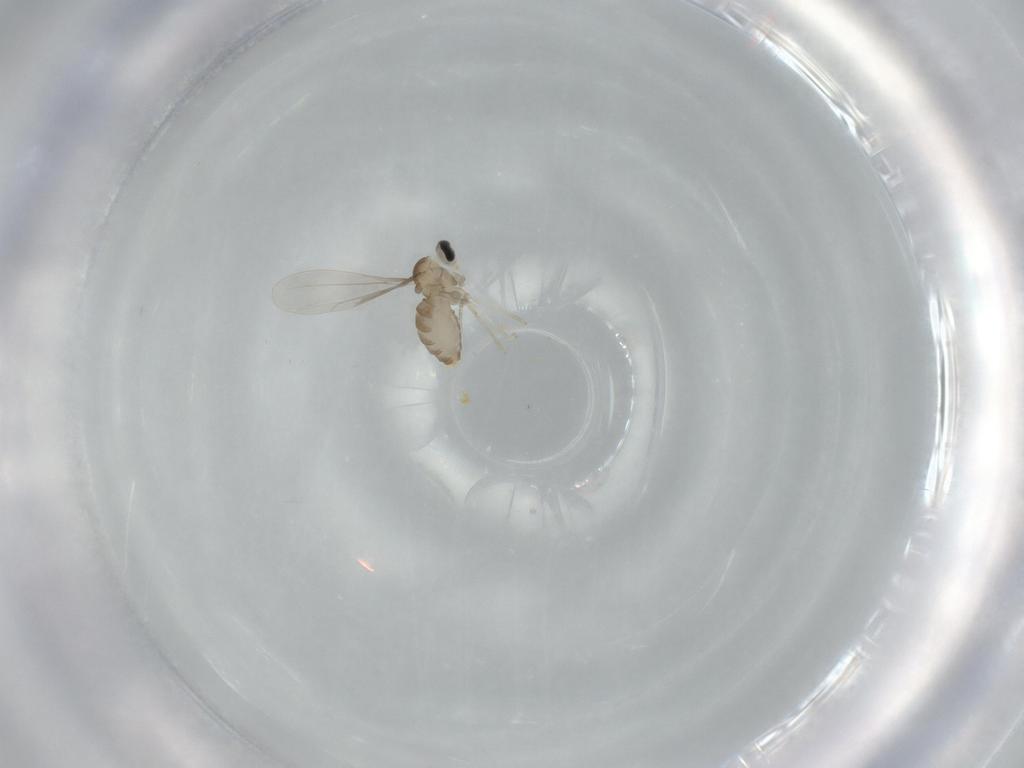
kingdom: Animalia
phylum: Arthropoda
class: Insecta
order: Diptera
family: Cecidomyiidae
